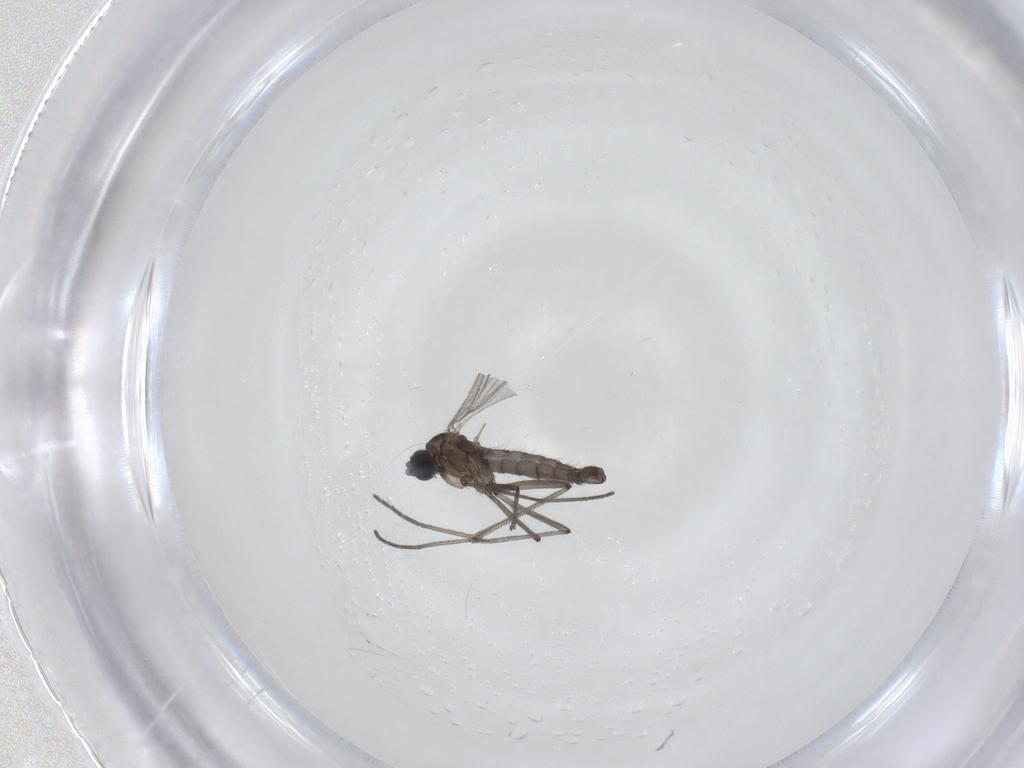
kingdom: Animalia
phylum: Arthropoda
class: Insecta
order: Diptera
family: Sciaridae
